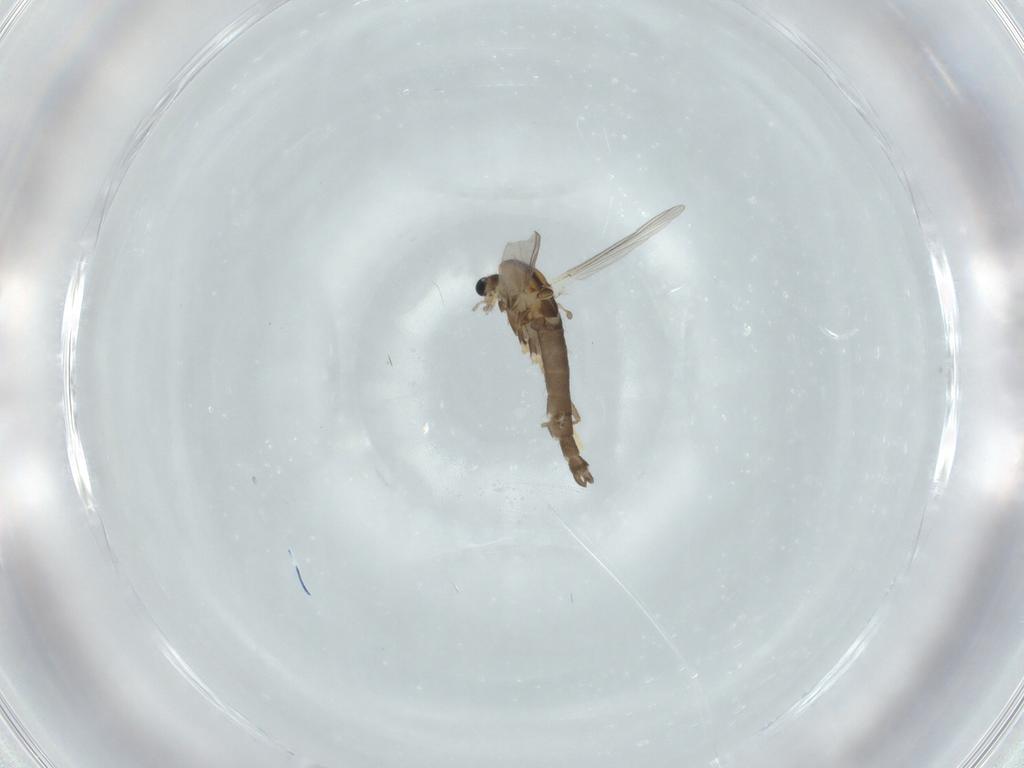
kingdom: Animalia
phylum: Arthropoda
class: Insecta
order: Diptera
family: Chironomidae
